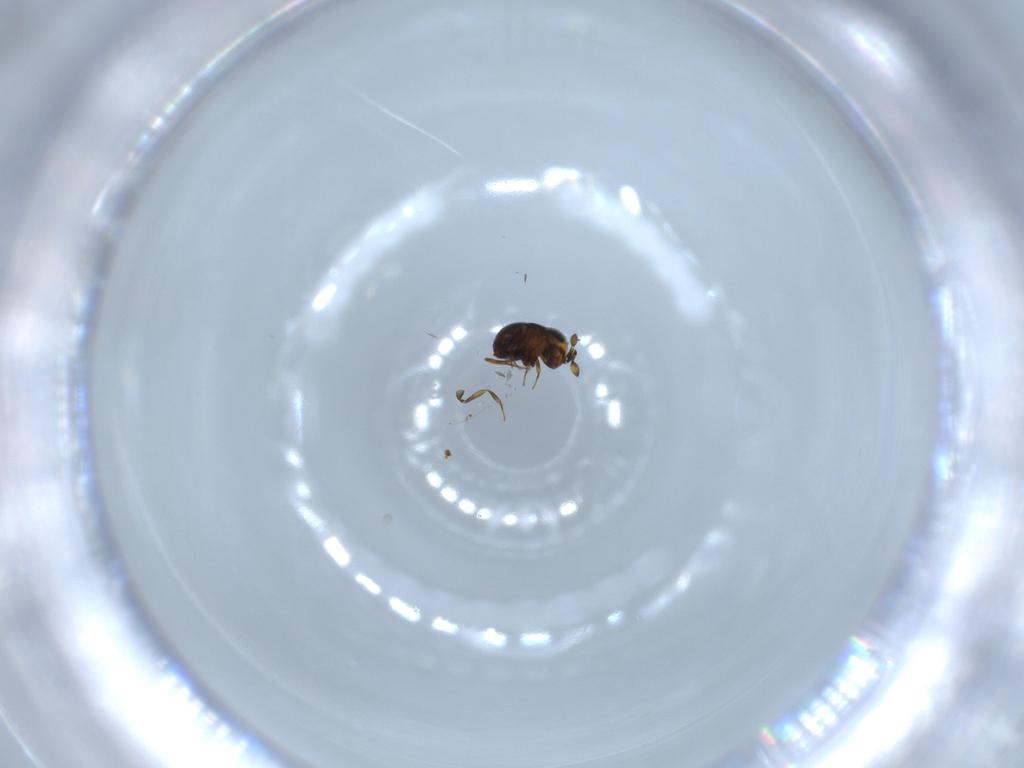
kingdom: Animalia
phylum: Arthropoda
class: Insecta
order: Hymenoptera
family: Scelionidae
